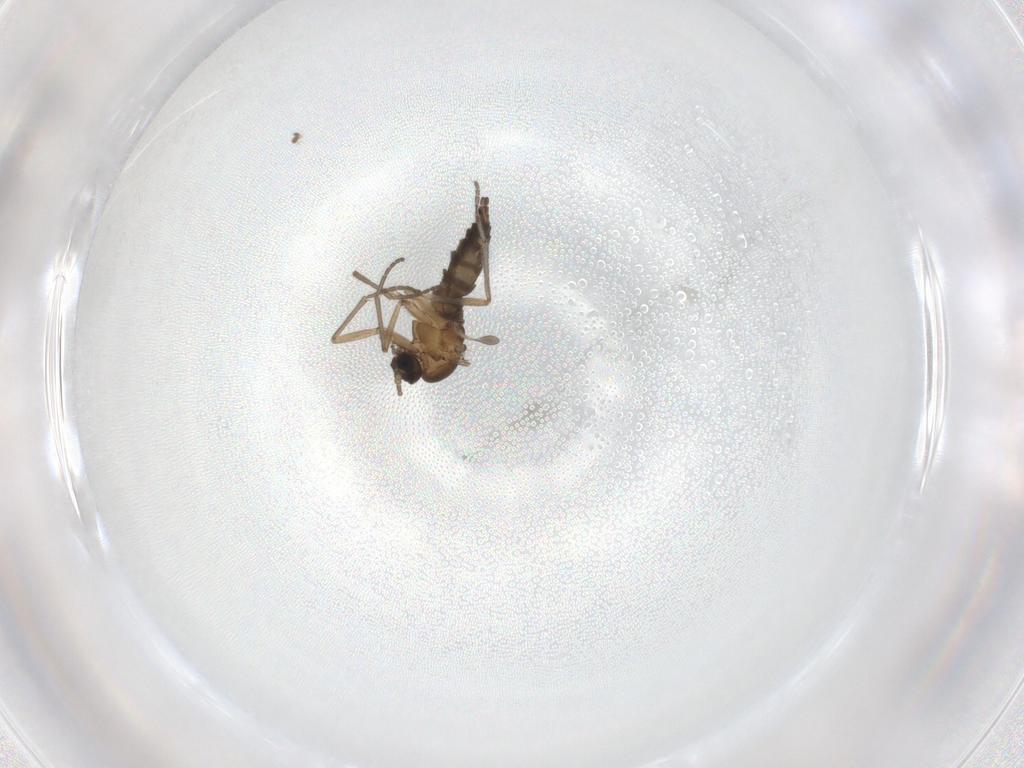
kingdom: Animalia
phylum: Arthropoda
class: Insecta
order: Diptera
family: Sciaridae
